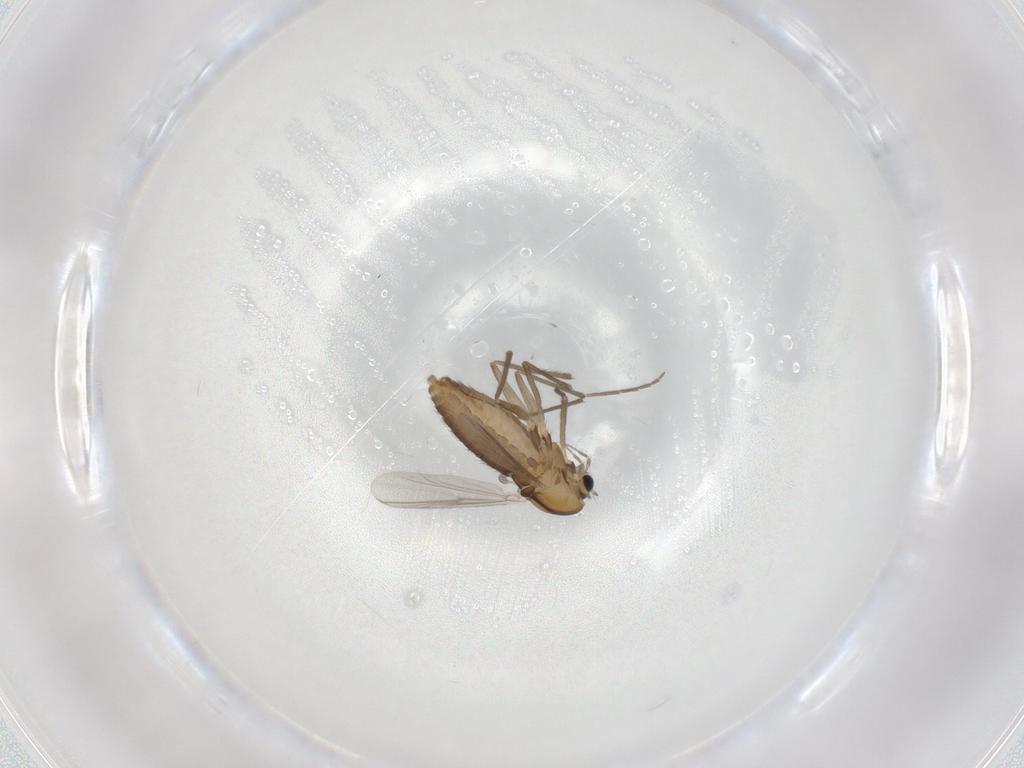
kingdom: Animalia
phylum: Arthropoda
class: Insecta
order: Diptera
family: Chironomidae
